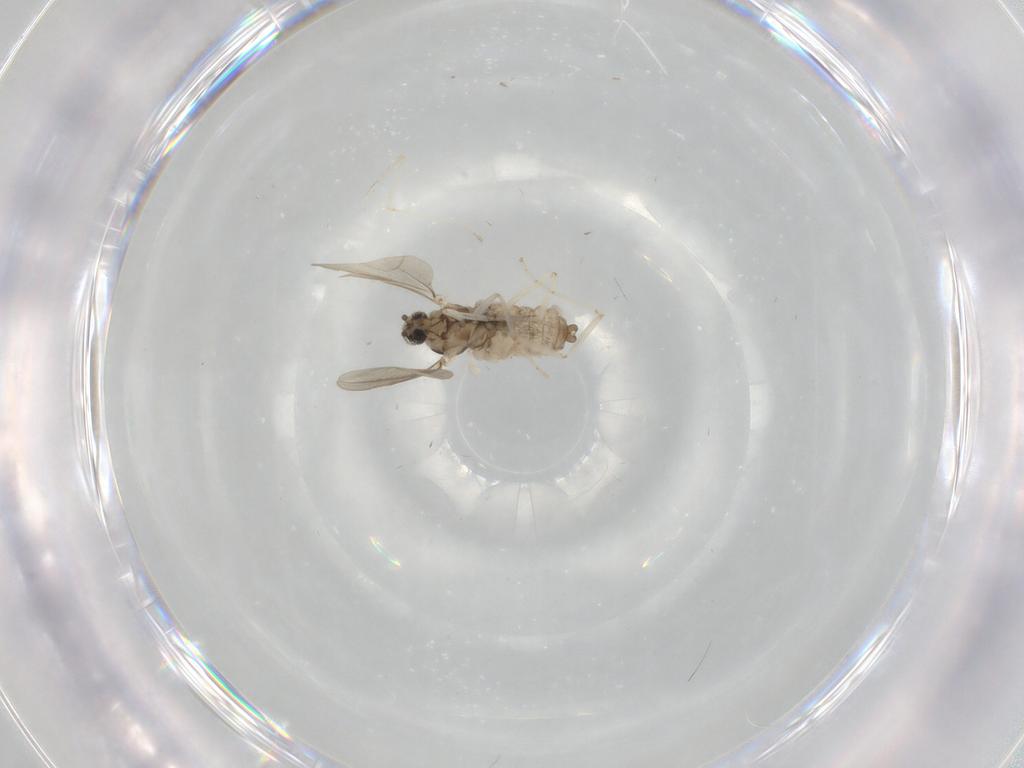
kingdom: Animalia
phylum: Arthropoda
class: Insecta
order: Diptera
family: Cecidomyiidae
